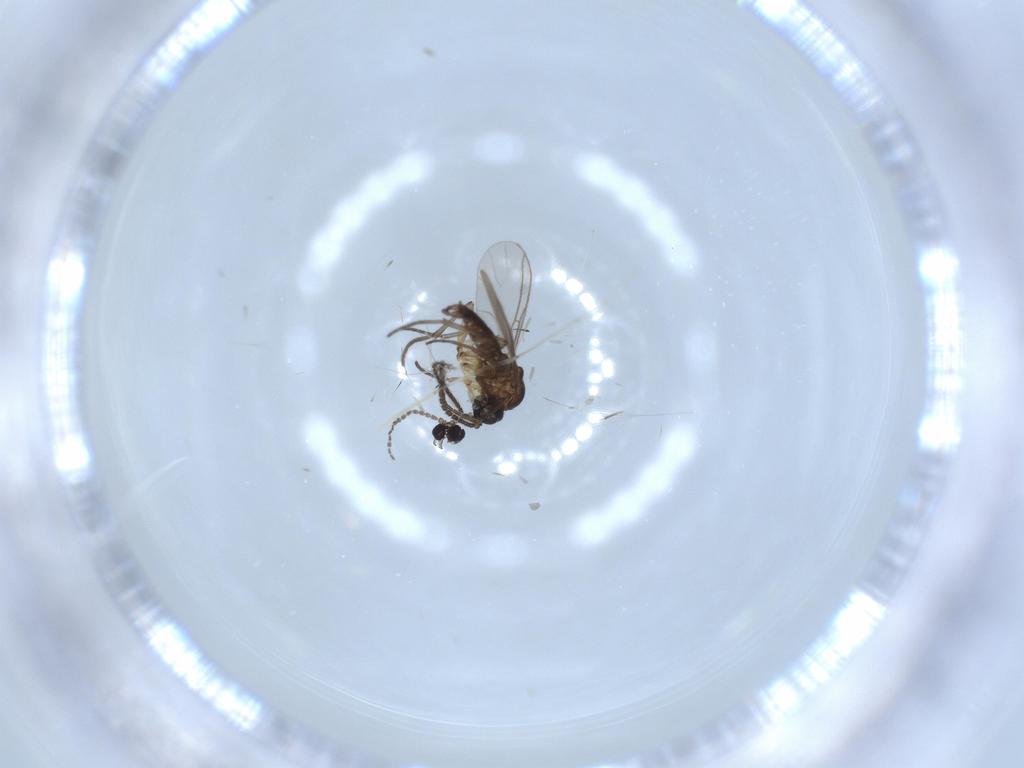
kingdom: Animalia
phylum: Arthropoda
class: Insecta
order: Diptera
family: Sciaridae
